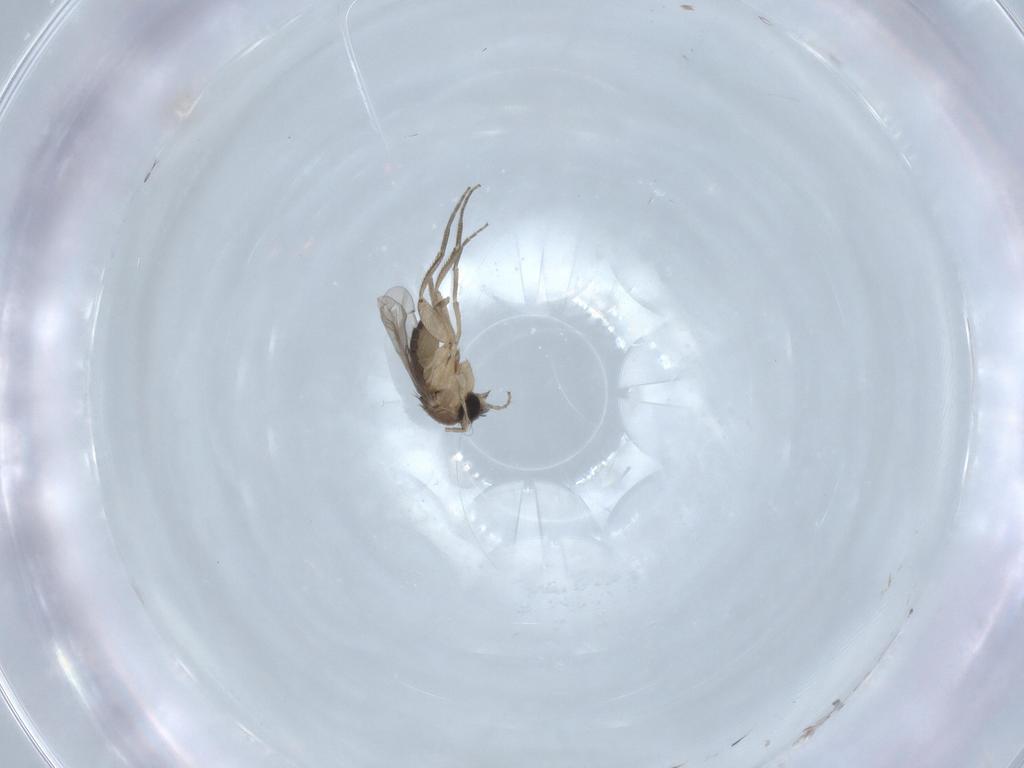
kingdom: Animalia
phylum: Arthropoda
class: Insecta
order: Diptera
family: Phoridae
